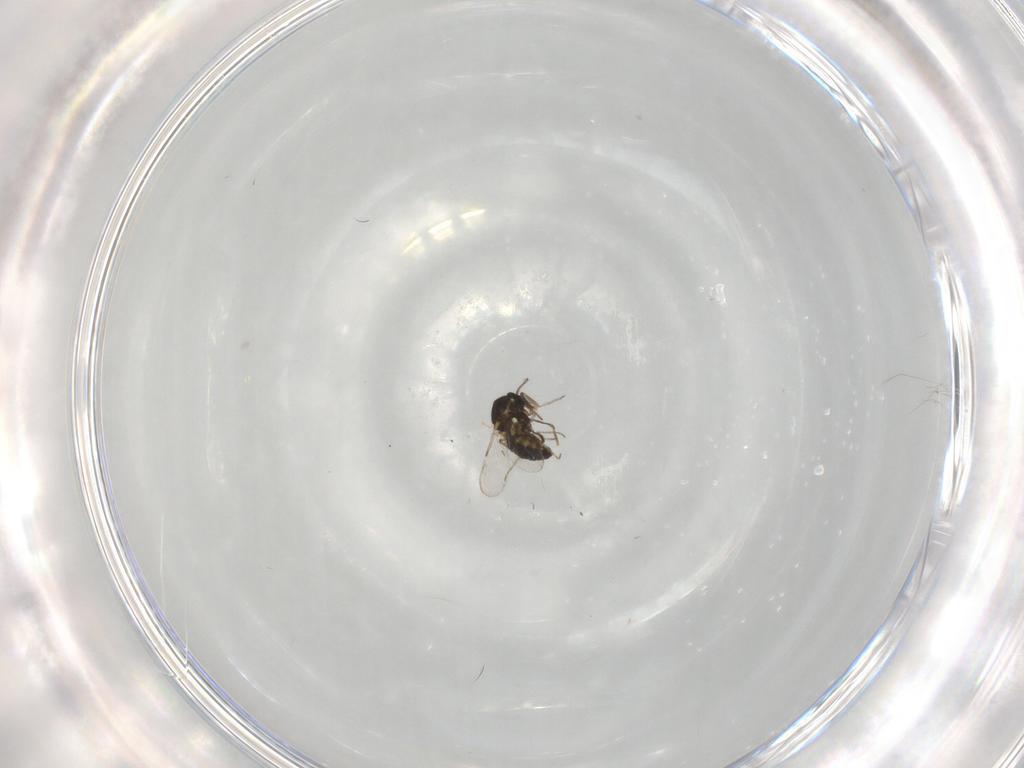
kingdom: Animalia
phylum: Arthropoda
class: Insecta
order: Diptera
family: Ceratopogonidae
